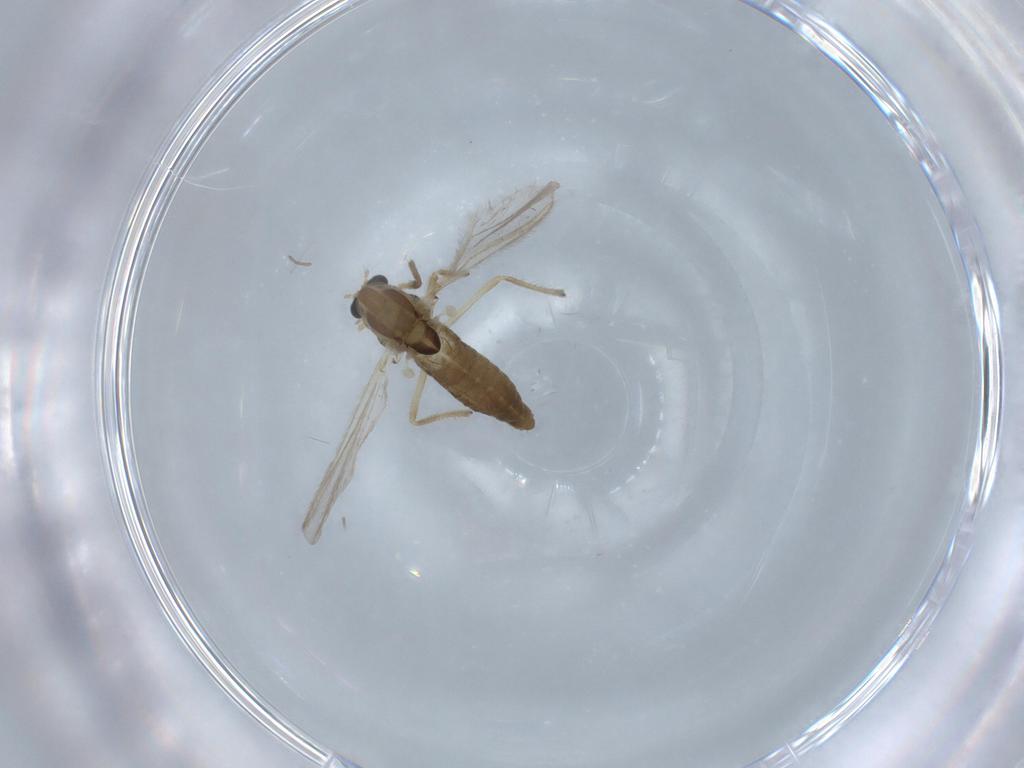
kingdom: Animalia
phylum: Arthropoda
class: Insecta
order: Diptera
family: Chironomidae
